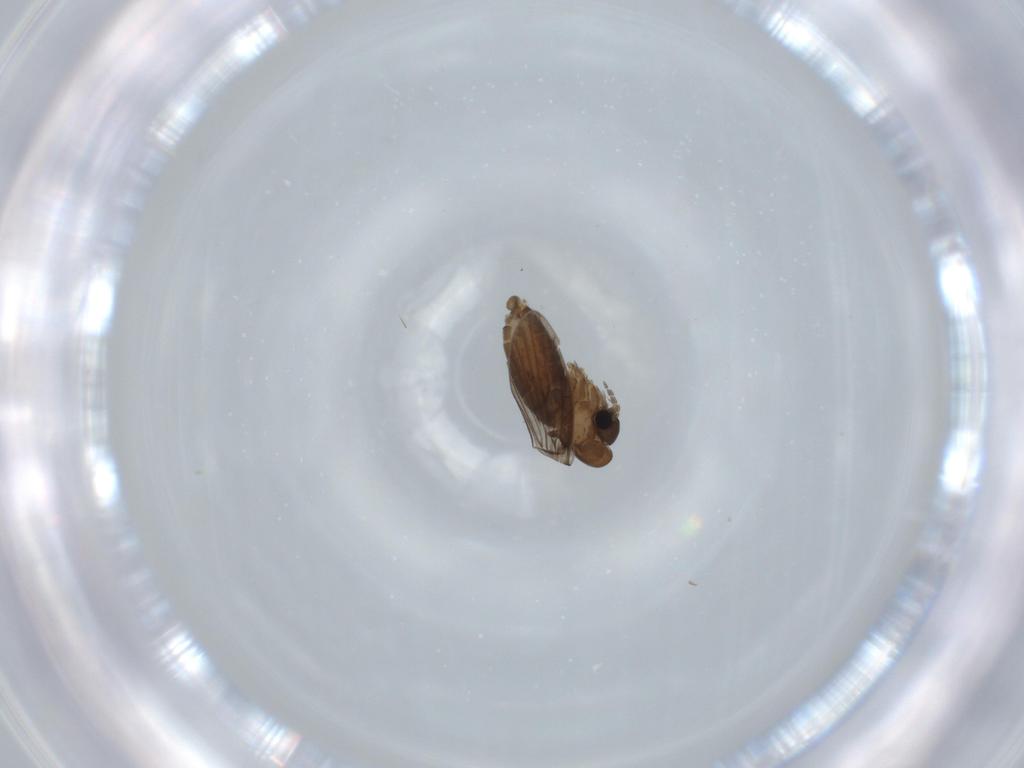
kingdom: Animalia
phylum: Arthropoda
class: Insecta
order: Diptera
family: Psychodidae
